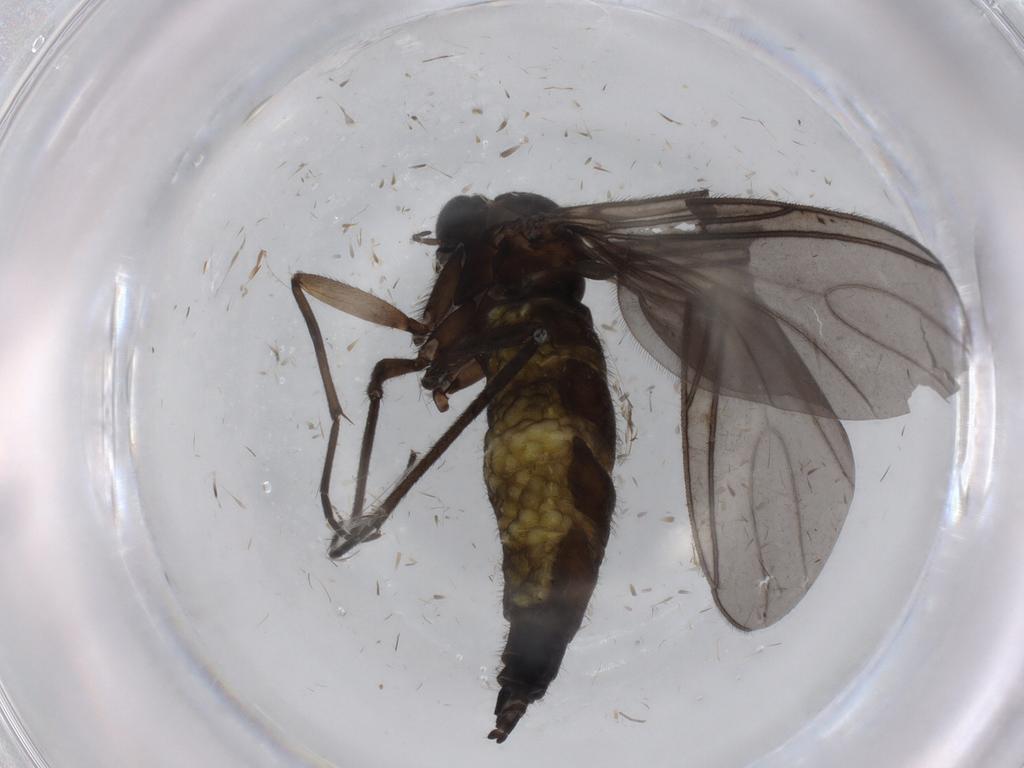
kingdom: Animalia
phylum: Arthropoda
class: Insecta
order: Diptera
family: Sciaridae
